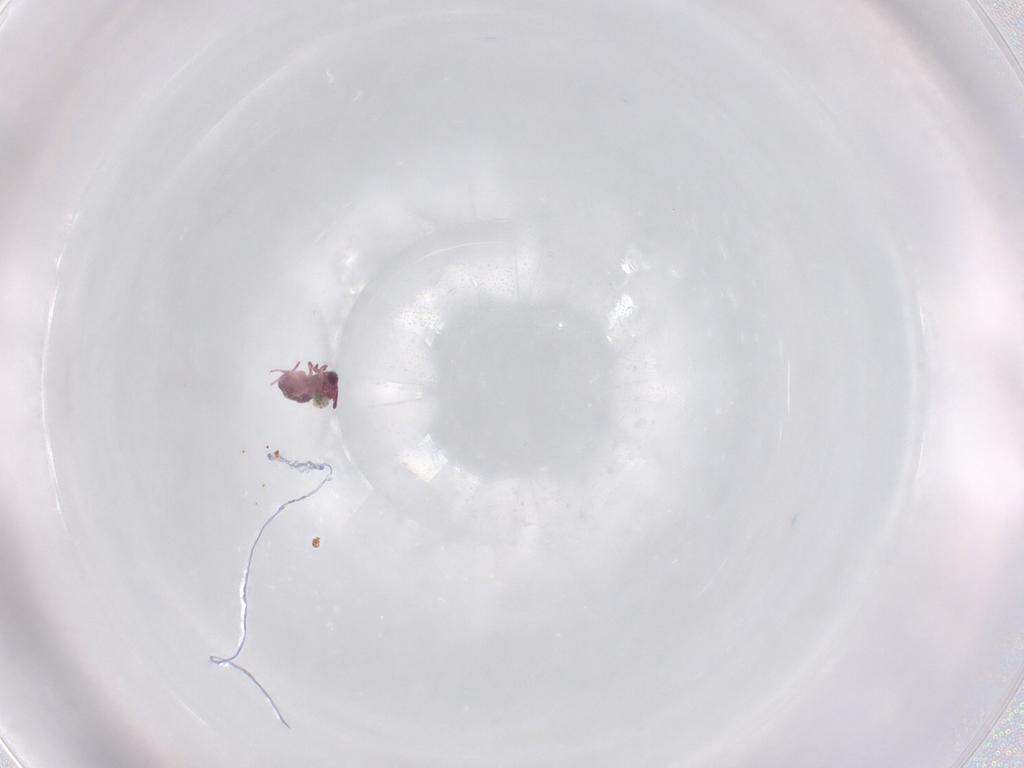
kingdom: Animalia
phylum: Arthropoda
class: Collembola
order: Symphypleona
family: Sminthurididae
